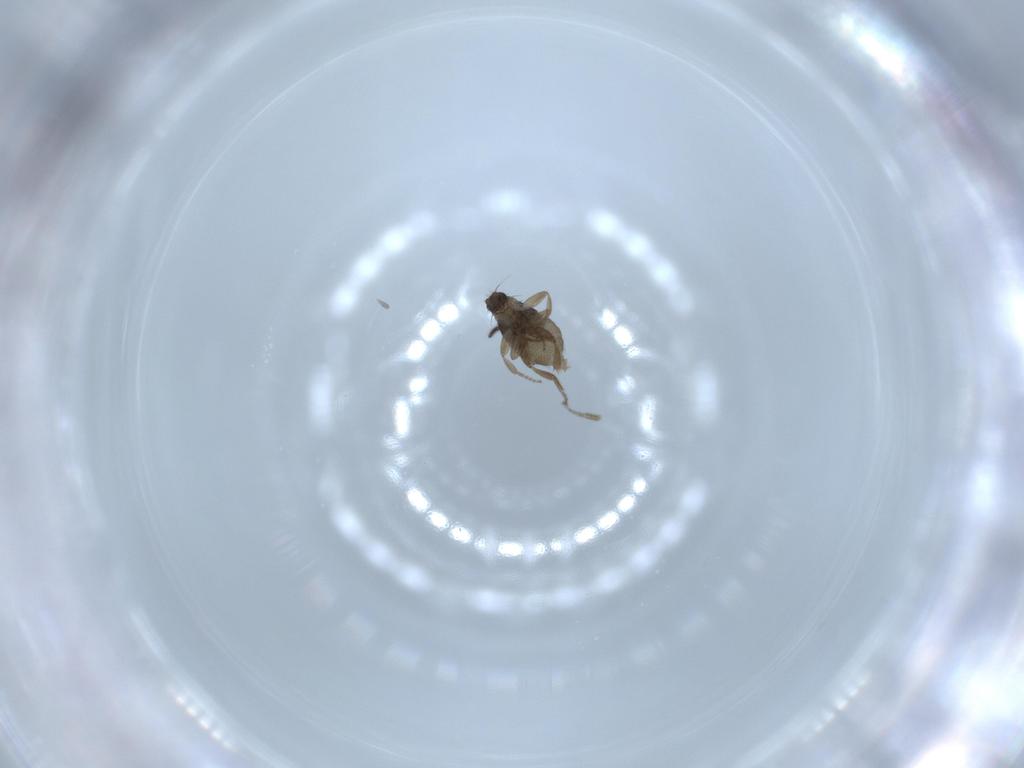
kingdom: Animalia
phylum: Arthropoda
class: Insecta
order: Diptera
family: Phoridae
